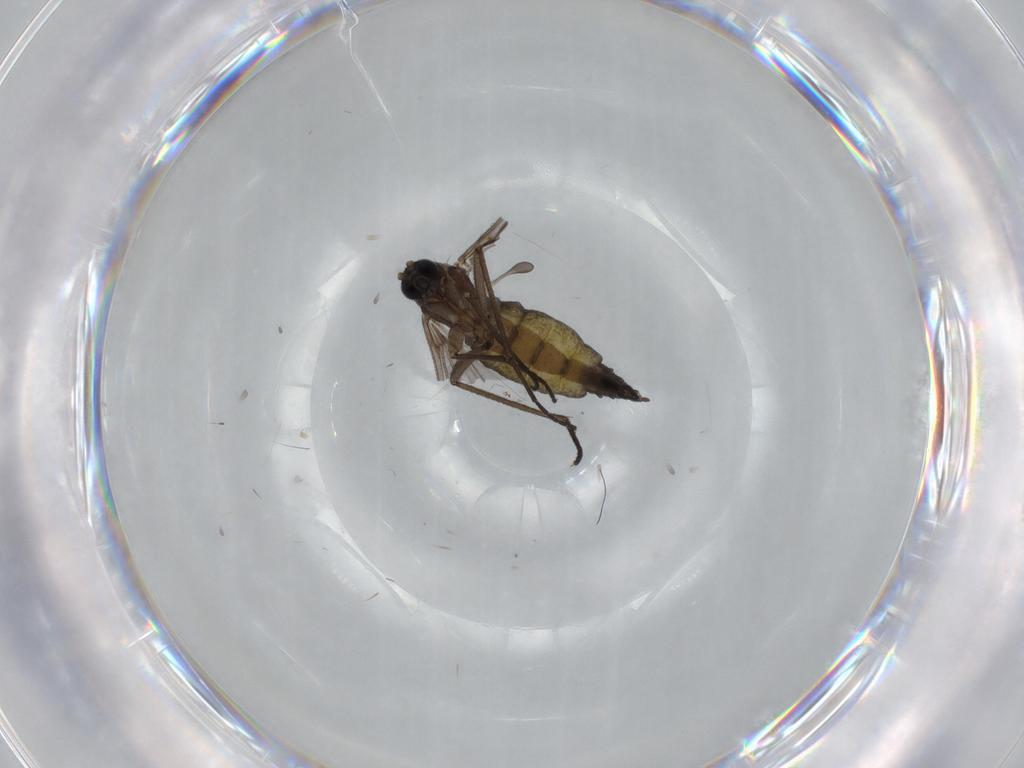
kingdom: Animalia
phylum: Arthropoda
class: Insecta
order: Diptera
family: Sciaridae
